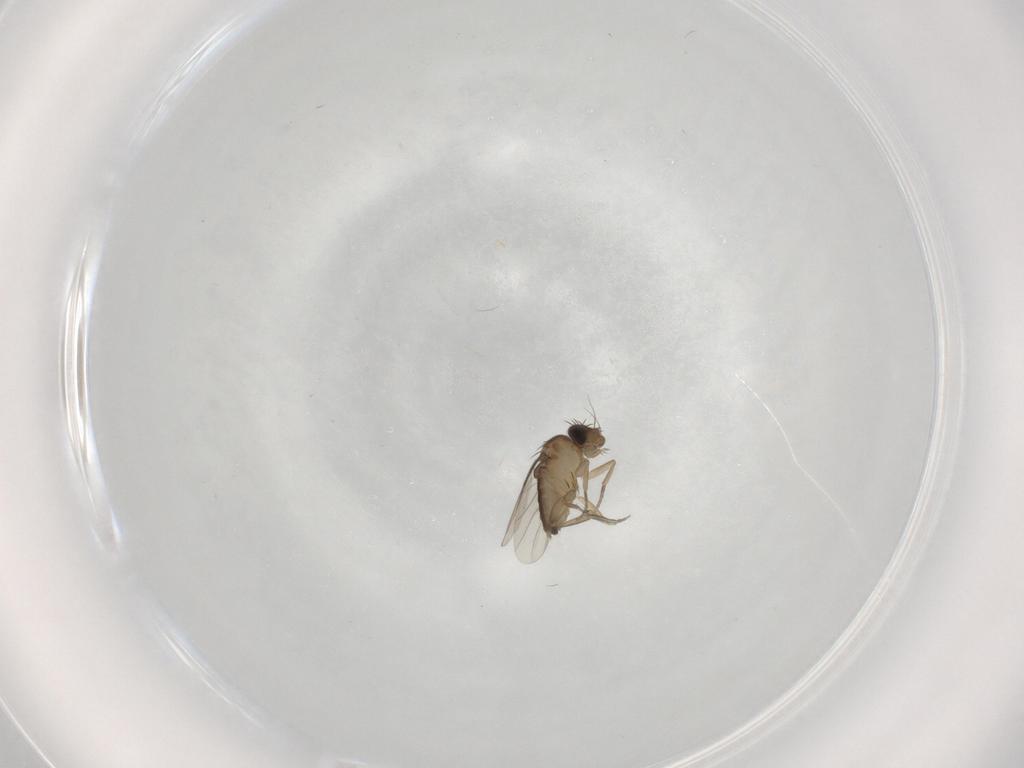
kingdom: Animalia
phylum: Arthropoda
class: Insecta
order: Diptera
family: Phoridae
